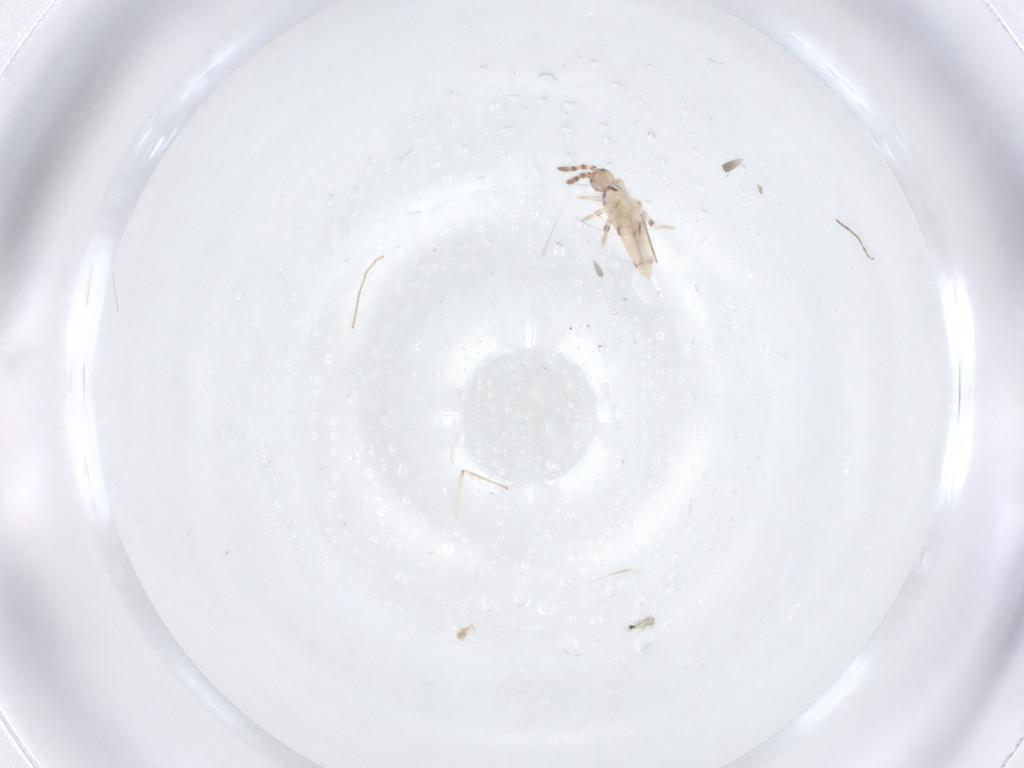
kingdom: Animalia
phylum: Arthropoda
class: Collembola
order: Entomobryomorpha
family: Entomobryidae
